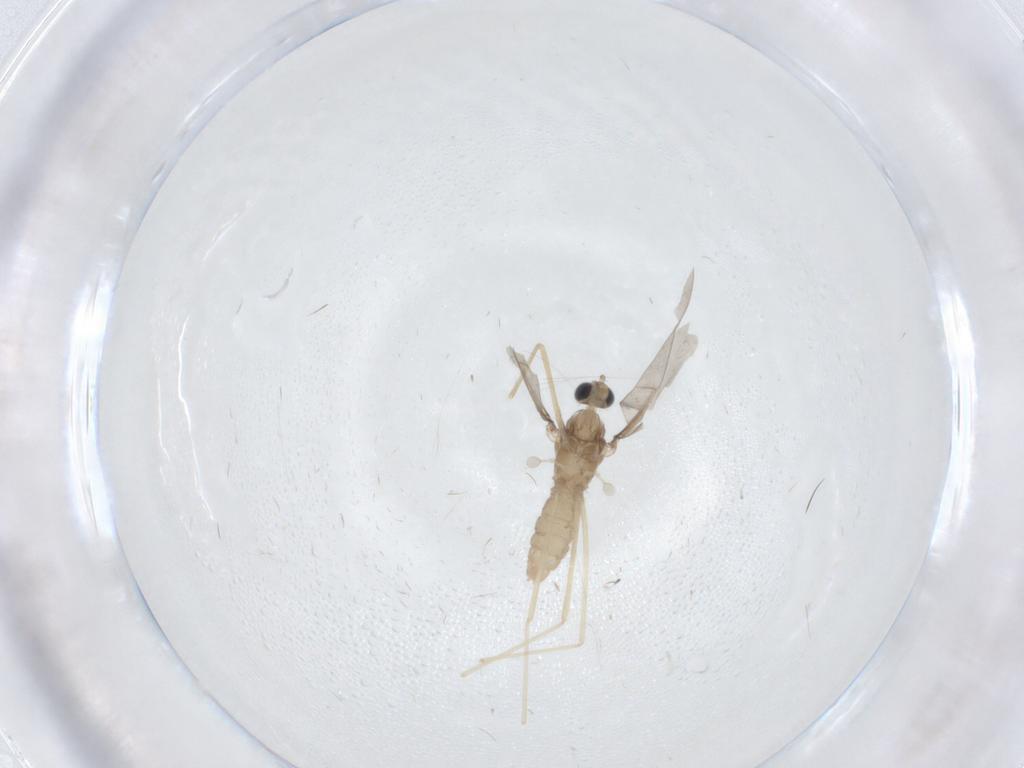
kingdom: Animalia
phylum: Arthropoda
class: Insecta
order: Diptera
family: Cecidomyiidae
